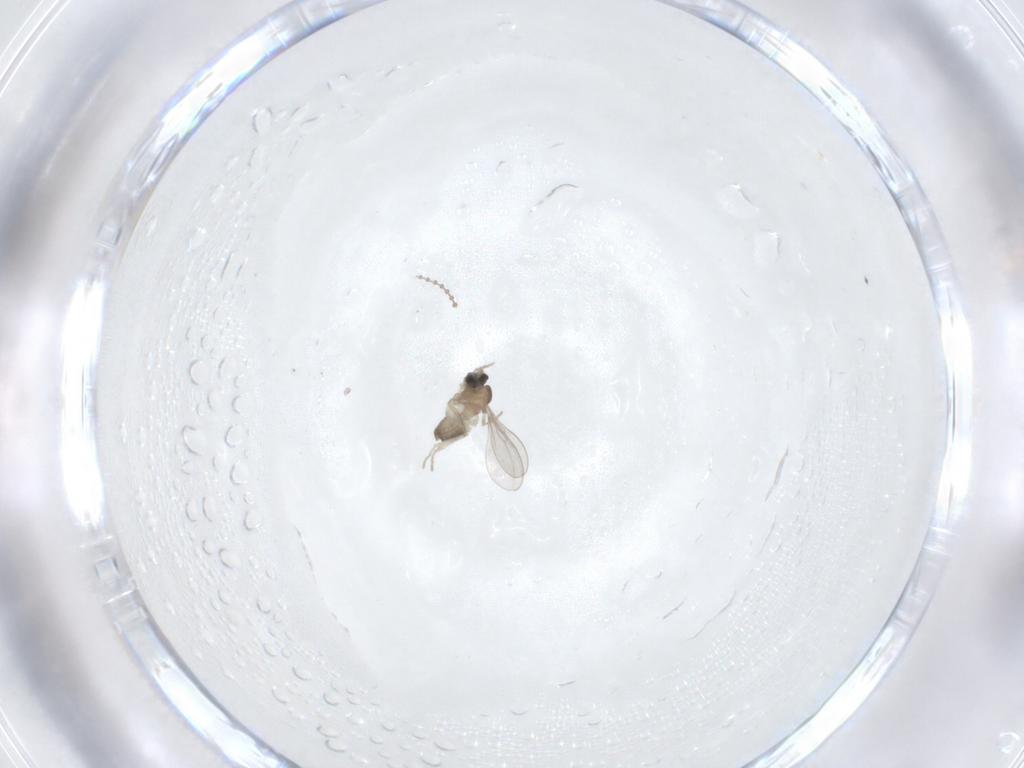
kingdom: Animalia
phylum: Arthropoda
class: Insecta
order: Diptera
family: Cecidomyiidae
